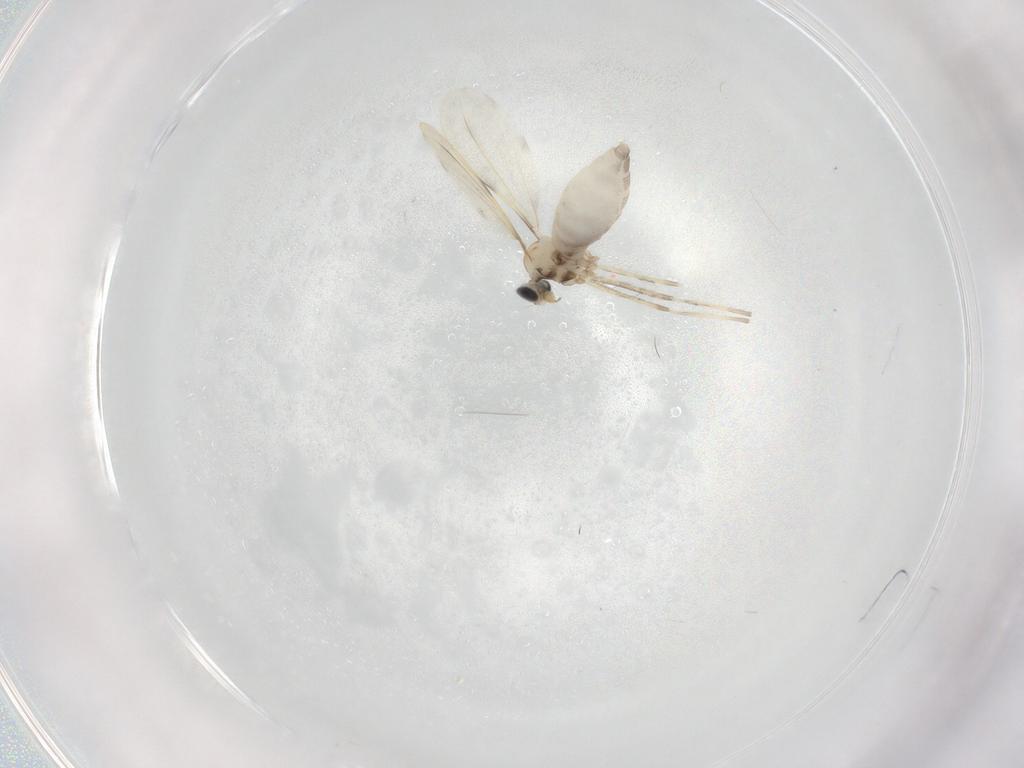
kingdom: Animalia
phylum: Arthropoda
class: Insecta
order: Diptera
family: Cecidomyiidae
